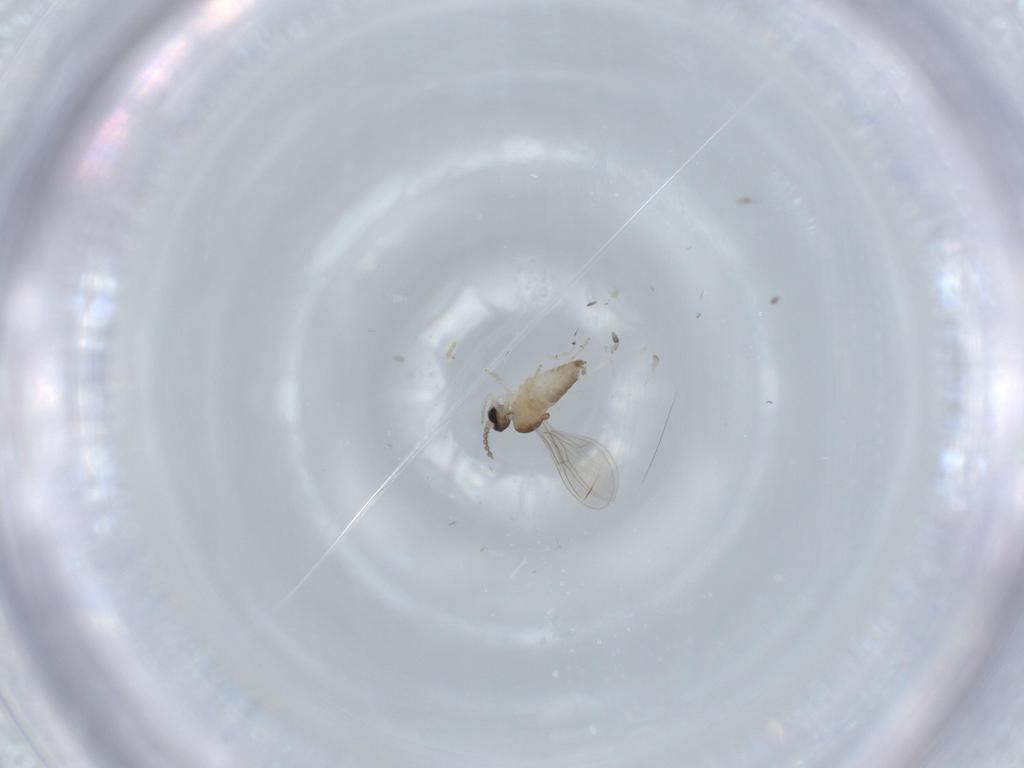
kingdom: Animalia
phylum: Arthropoda
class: Insecta
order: Diptera
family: Cecidomyiidae
